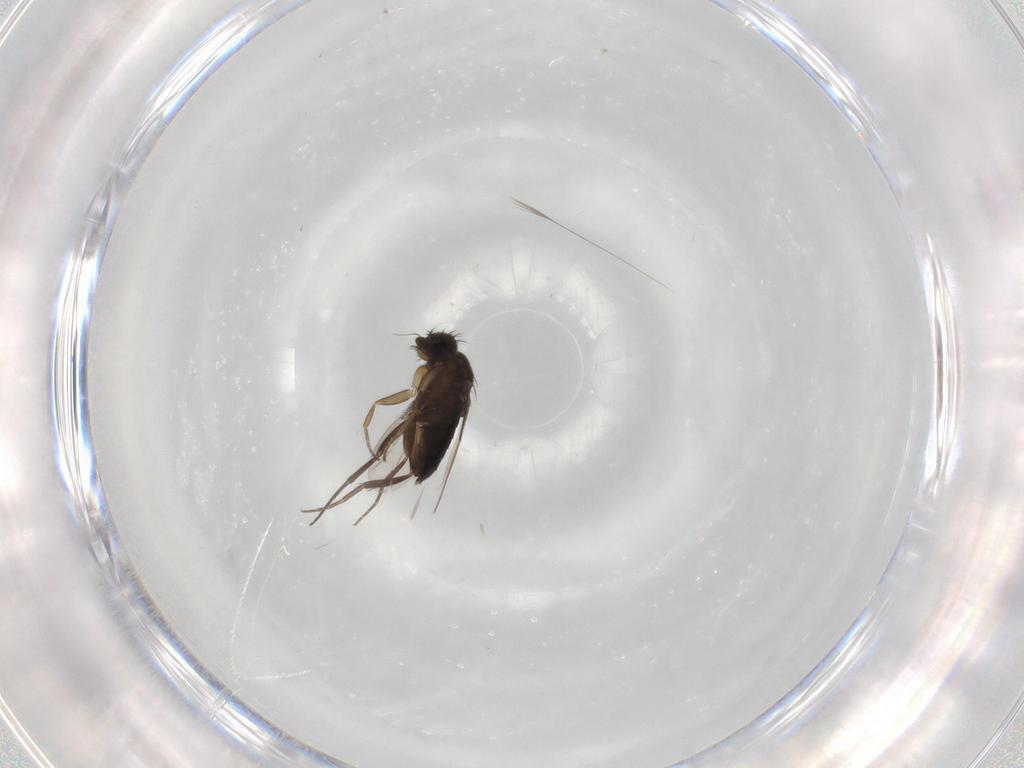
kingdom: Animalia
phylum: Arthropoda
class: Insecta
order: Diptera
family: Phoridae
